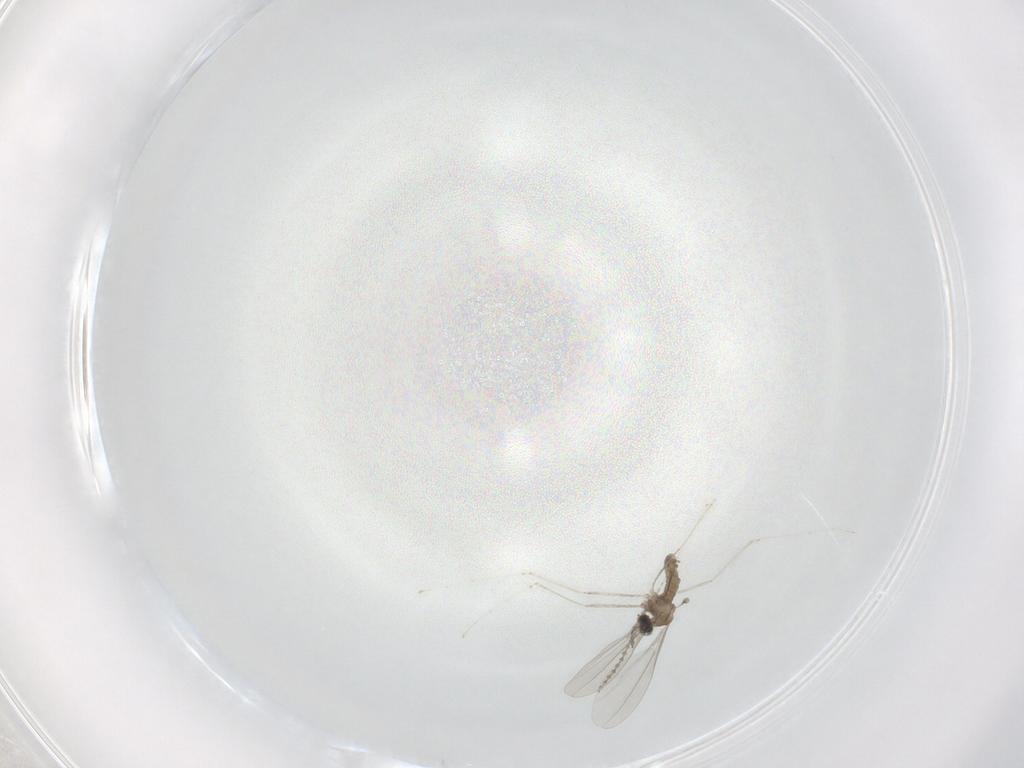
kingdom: Animalia
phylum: Arthropoda
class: Insecta
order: Diptera
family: Cecidomyiidae
